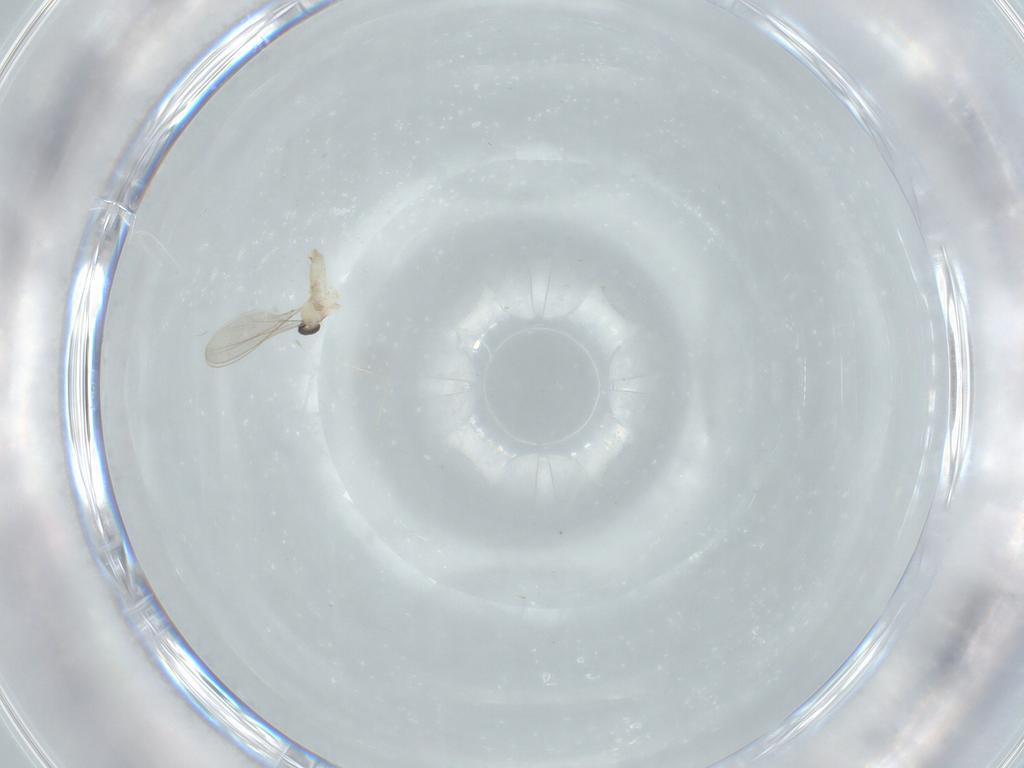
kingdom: Animalia
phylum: Arthropoda
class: Insecta
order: Diptera
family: Cecidomyiidae
